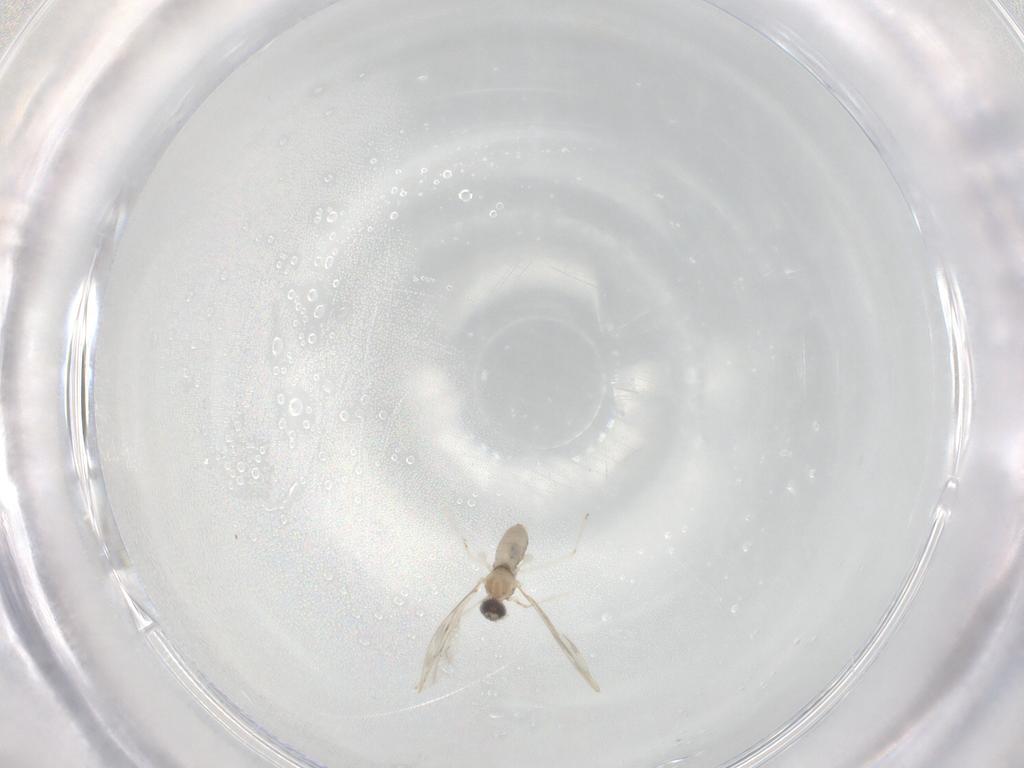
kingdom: Animalia
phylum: Arthropoda
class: Insecta
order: Diptera
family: Cecidomyiidae
